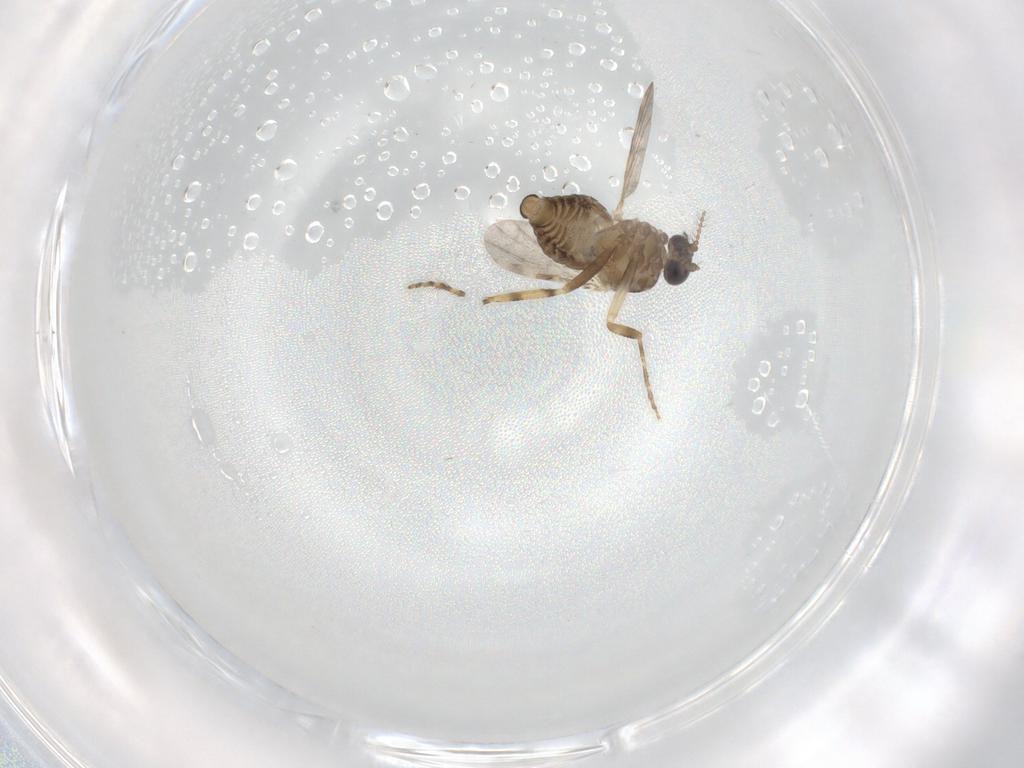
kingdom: Animalia
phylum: Arthropoda
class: Insecta
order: Diptera
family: Ceratopogonidae
